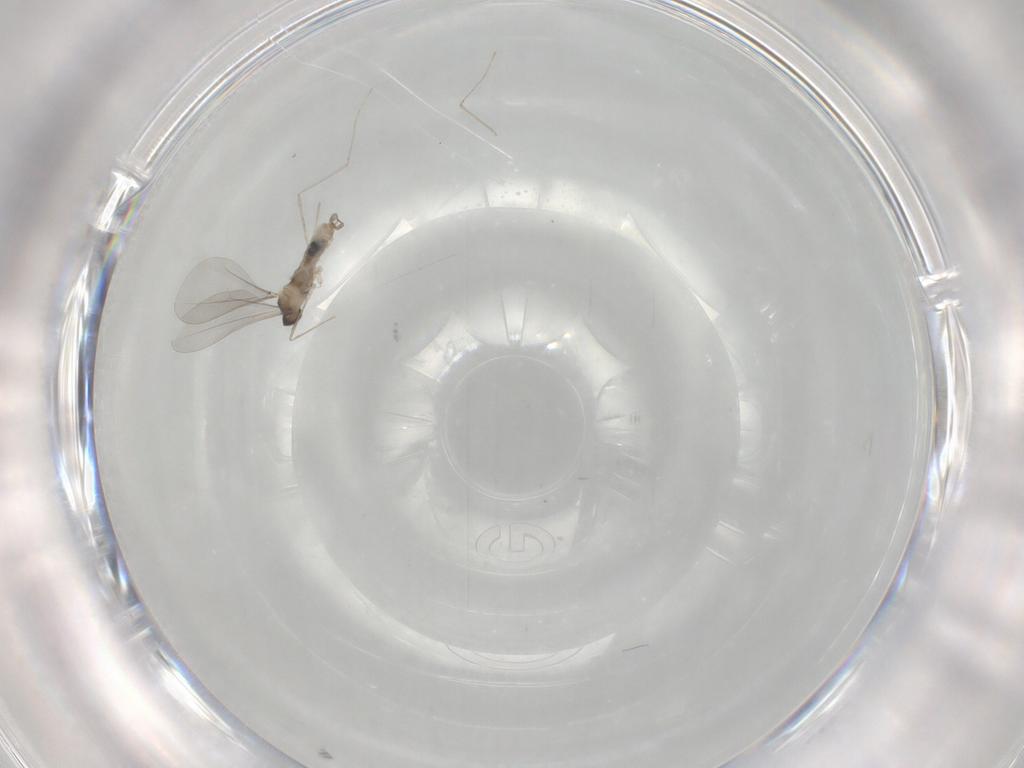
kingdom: Animalia
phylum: Arthropoda
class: Insecta
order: Diptera
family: Cecidomyiidae
